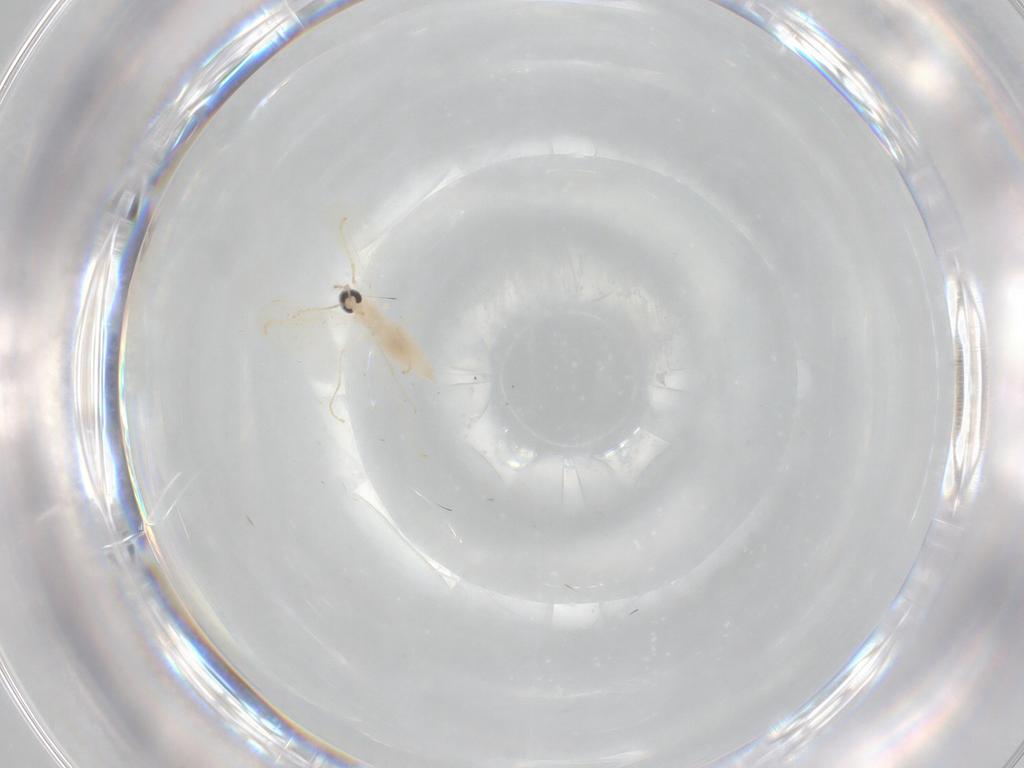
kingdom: Animalia
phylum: Arthropoda
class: Insecta
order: Diptera
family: Cecidomyiidae
